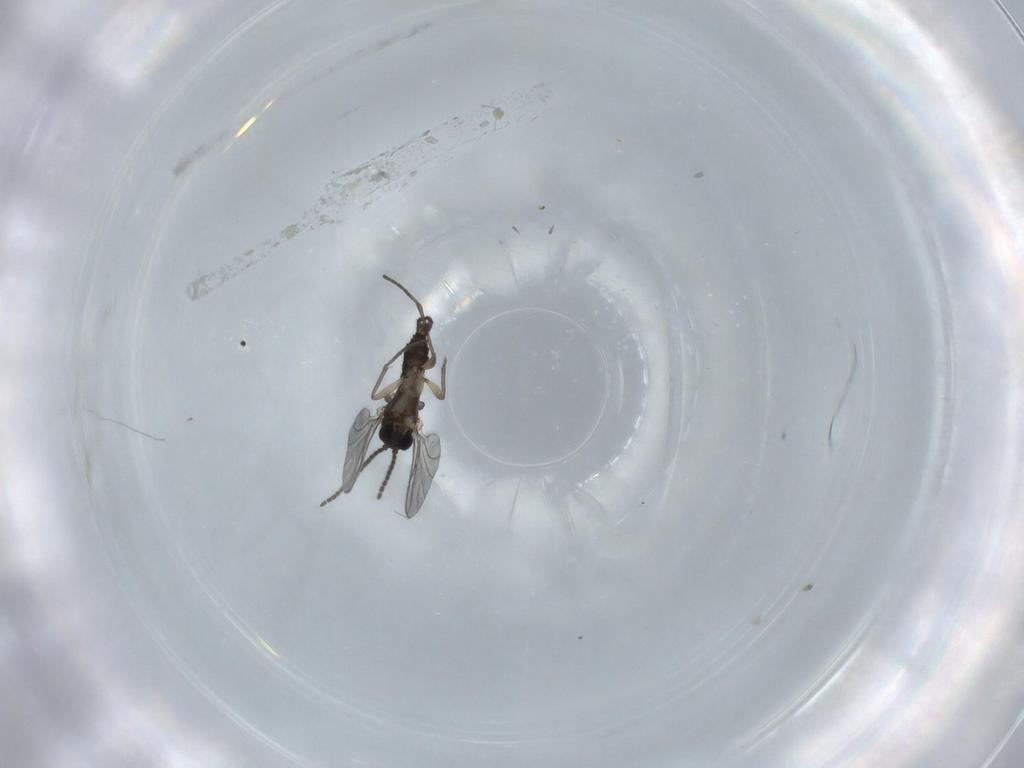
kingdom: Animalia
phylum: Arthropoda
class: Insecta
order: Diptera
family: Sciaridae
